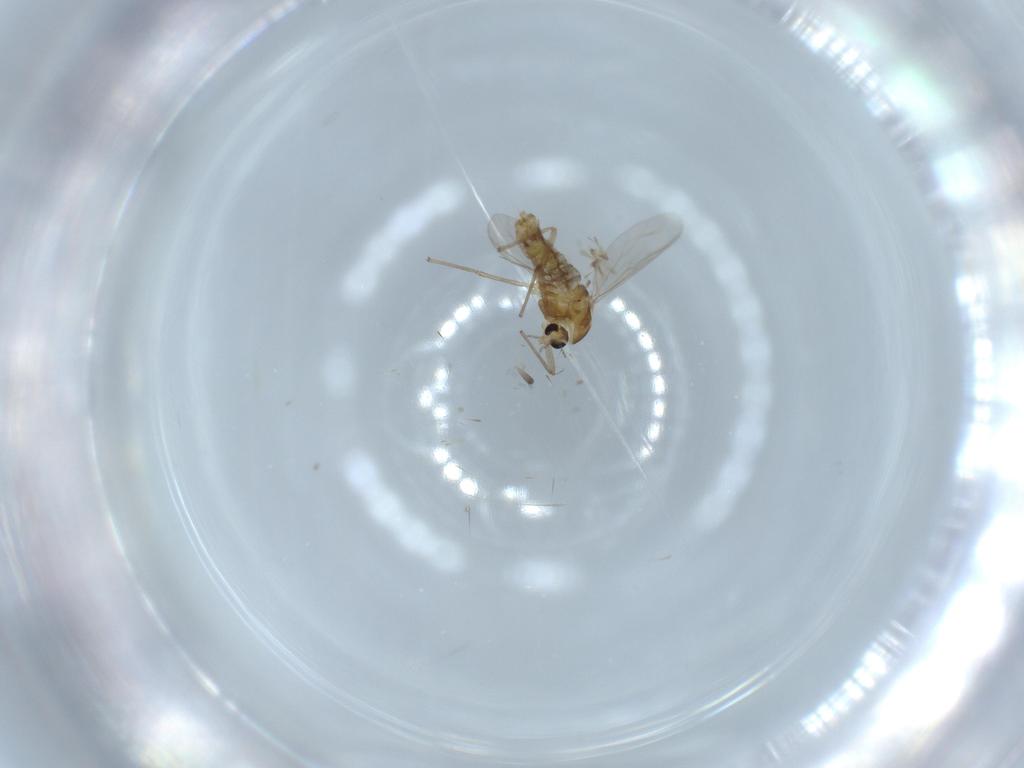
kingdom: Animalia
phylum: Arthropoda
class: Insecta
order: Diptera
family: Chironomidae
